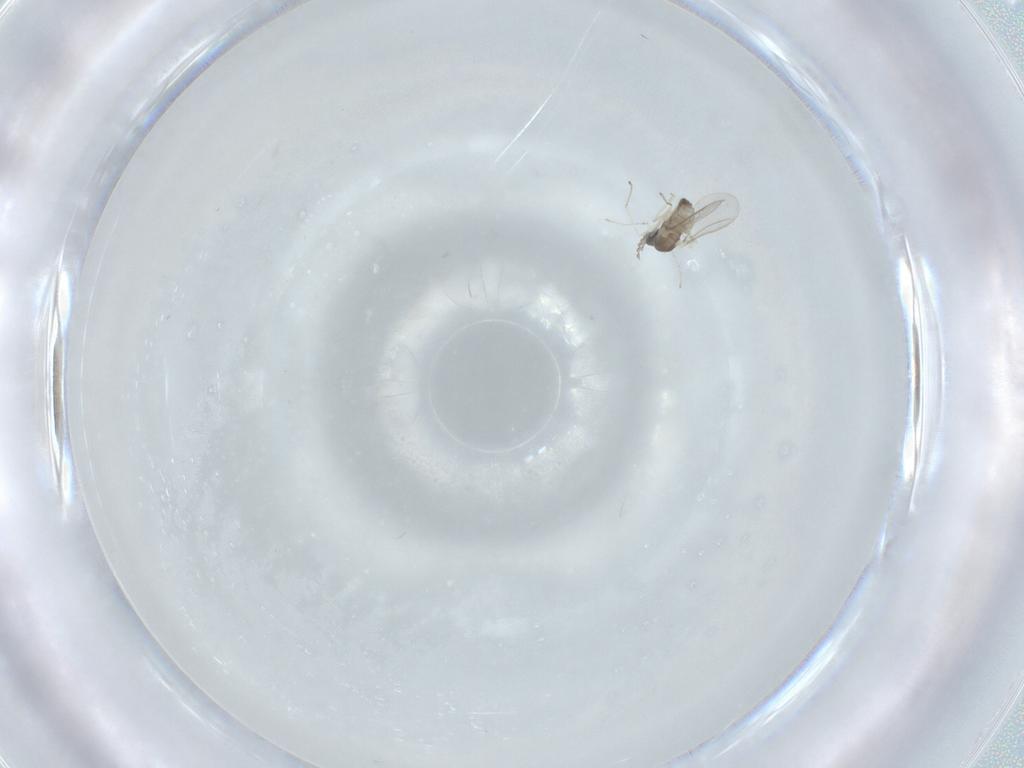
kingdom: Animalia
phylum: Arthropoda
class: Insecta
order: Diptera
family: Cecidomyiidae
